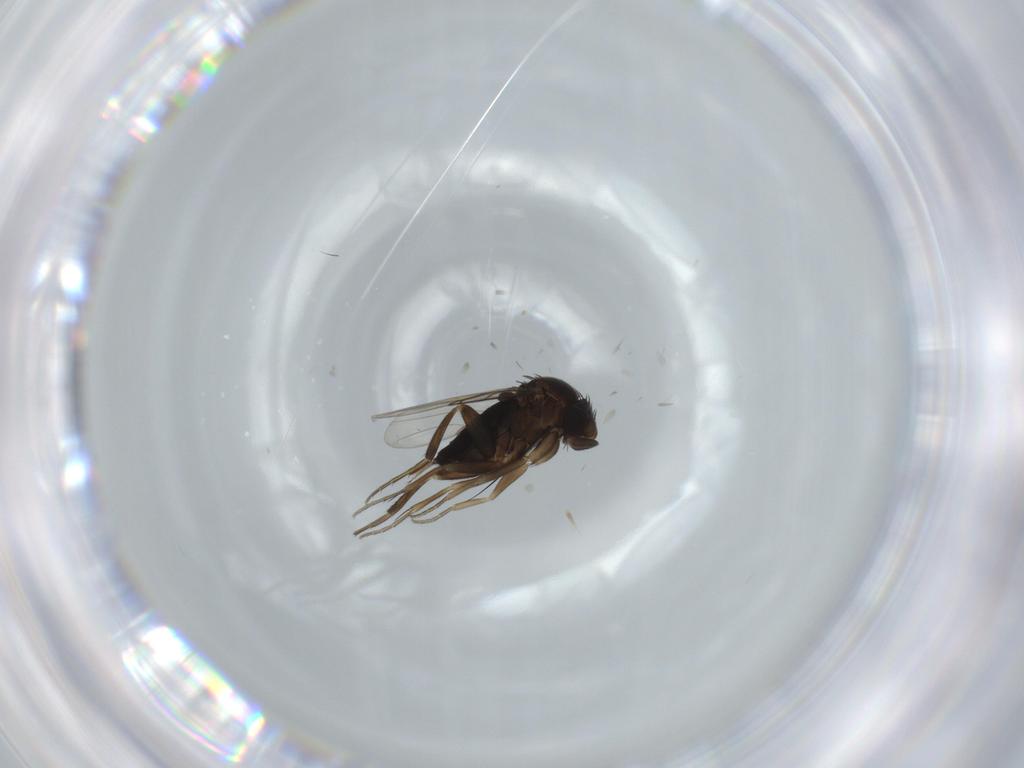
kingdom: Animalia
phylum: Arthropoda
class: Insecta
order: Diptera
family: Phoridae
